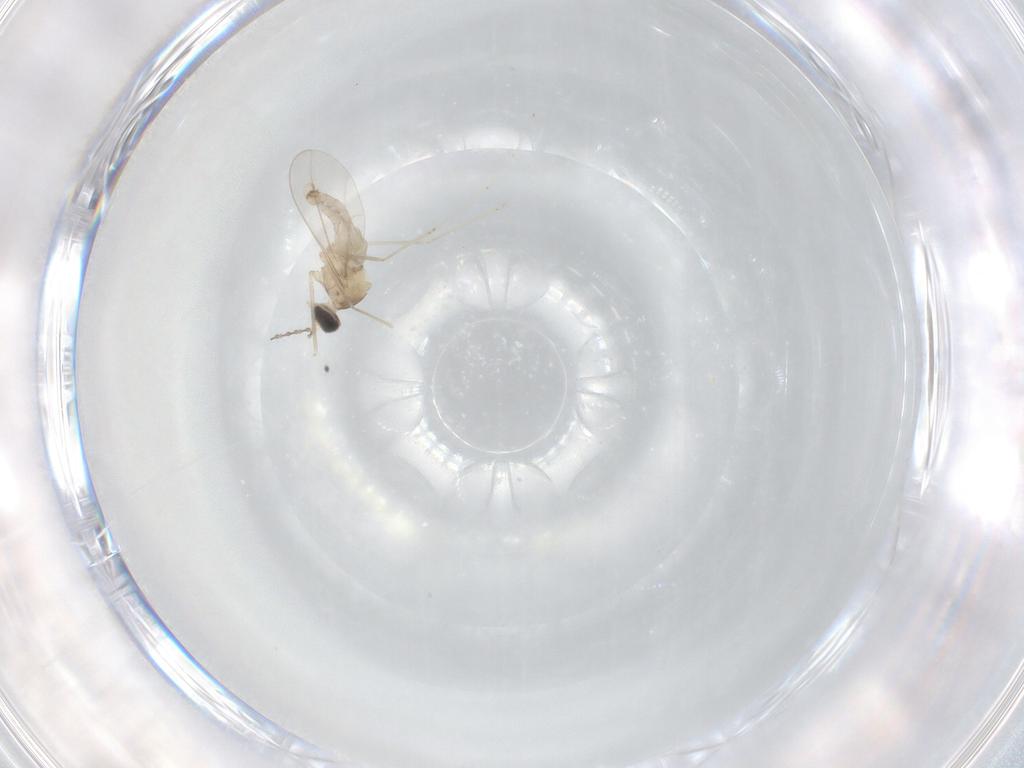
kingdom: Animalia
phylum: Arthropoda
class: Insecta
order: Diptera
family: Cecidomyiidae
